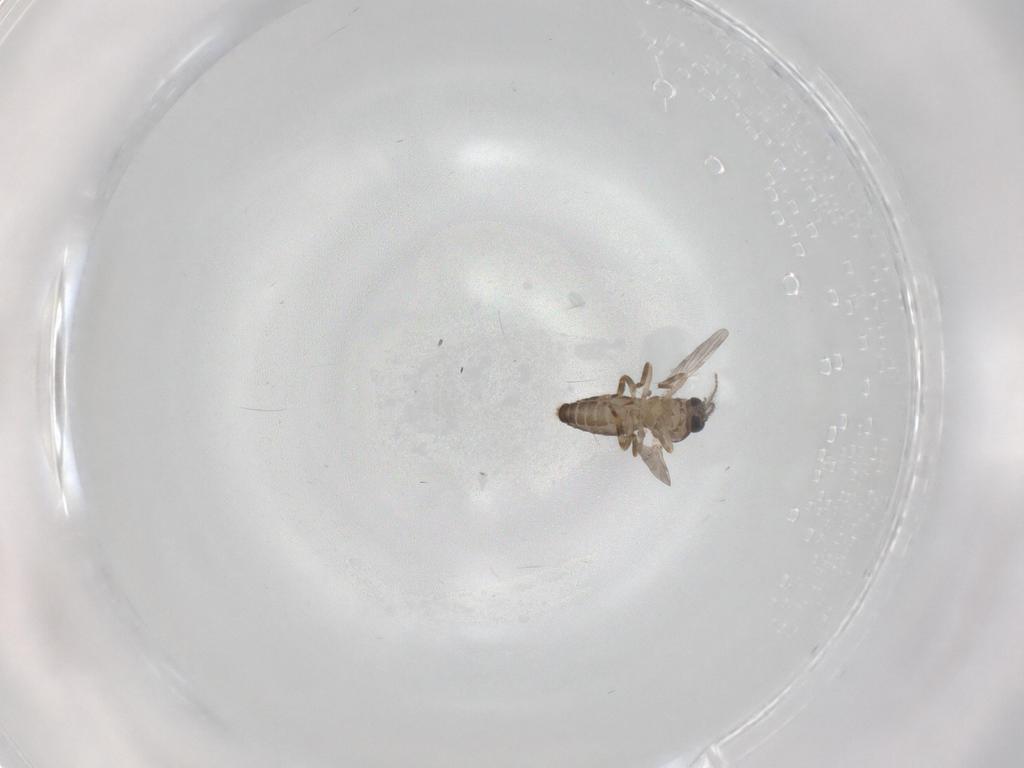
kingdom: Animalia
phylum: Arthropoda
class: Insecta
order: Diptera
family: Ceratopogonidae
